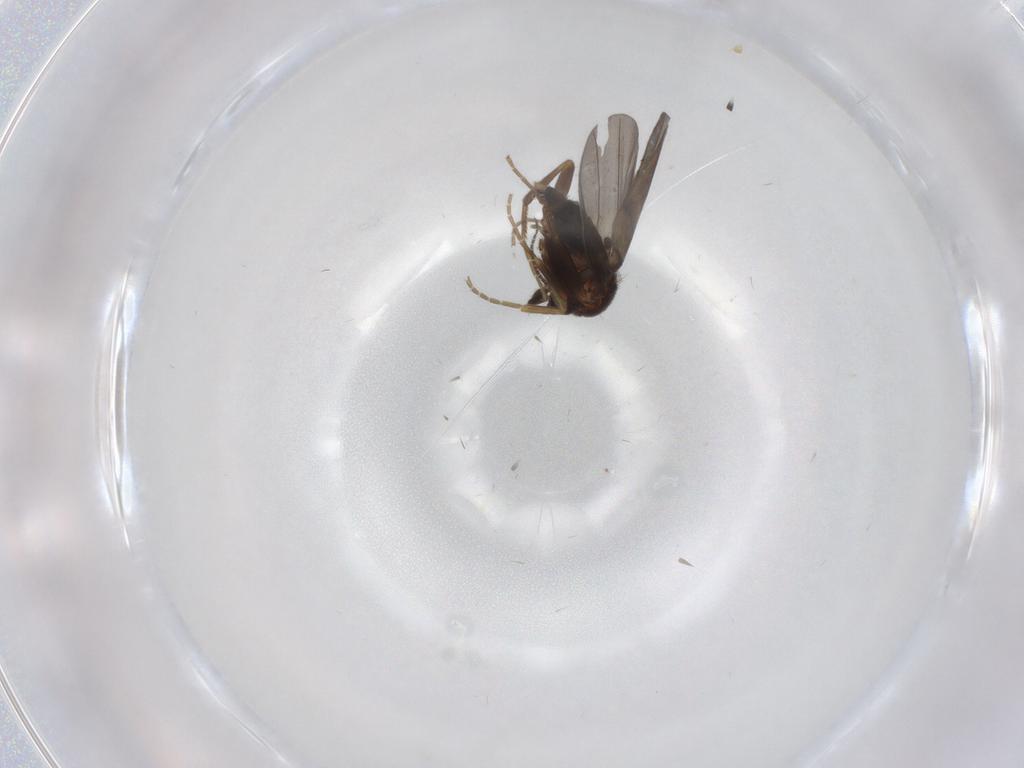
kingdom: Animalia
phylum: Arthropoda
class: Insecta
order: Diptera
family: Phoridae
